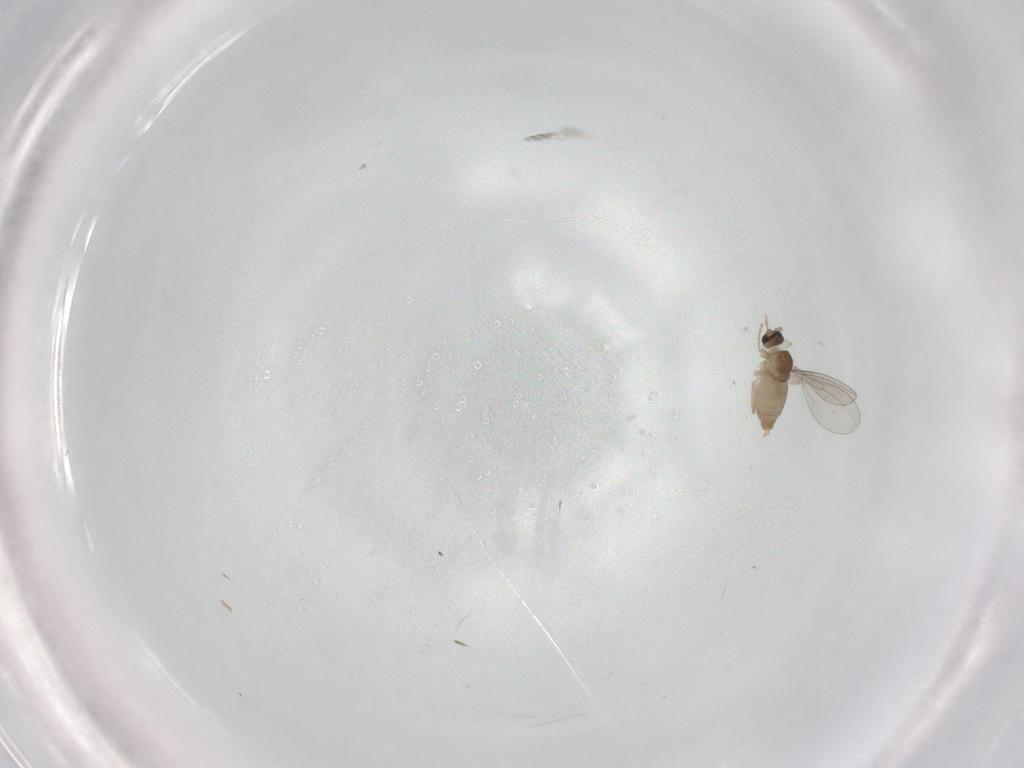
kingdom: Animalia
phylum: Arthropoda
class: Insecta
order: Diptera
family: Cecidomyiidae
